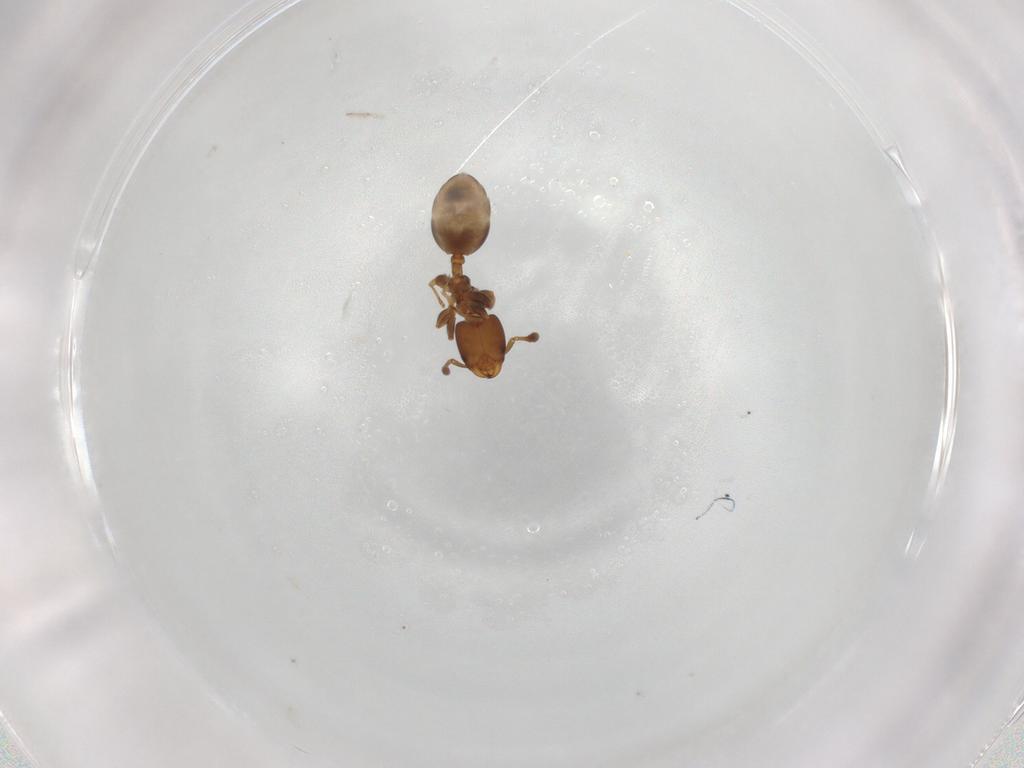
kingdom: Animalia
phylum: Arthropoda
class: Insecta
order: Hymenoptera
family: Formicidae
